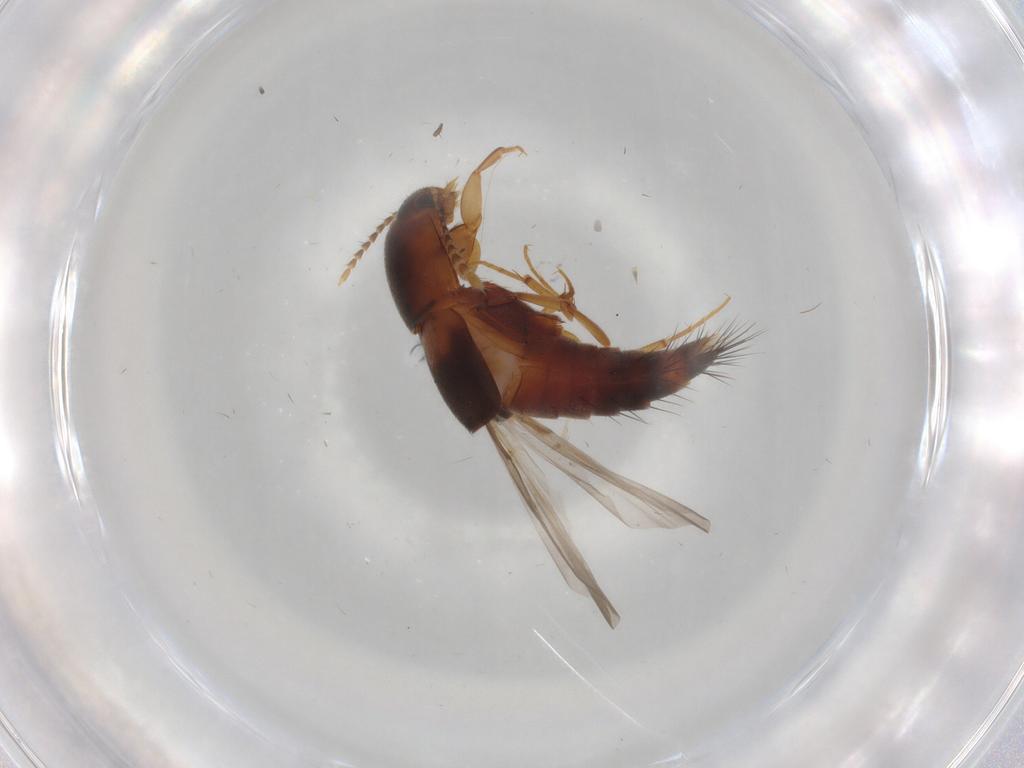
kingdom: Animalia
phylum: Arthropoda
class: Insecta
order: Coleoptera
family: Staphylinidae
